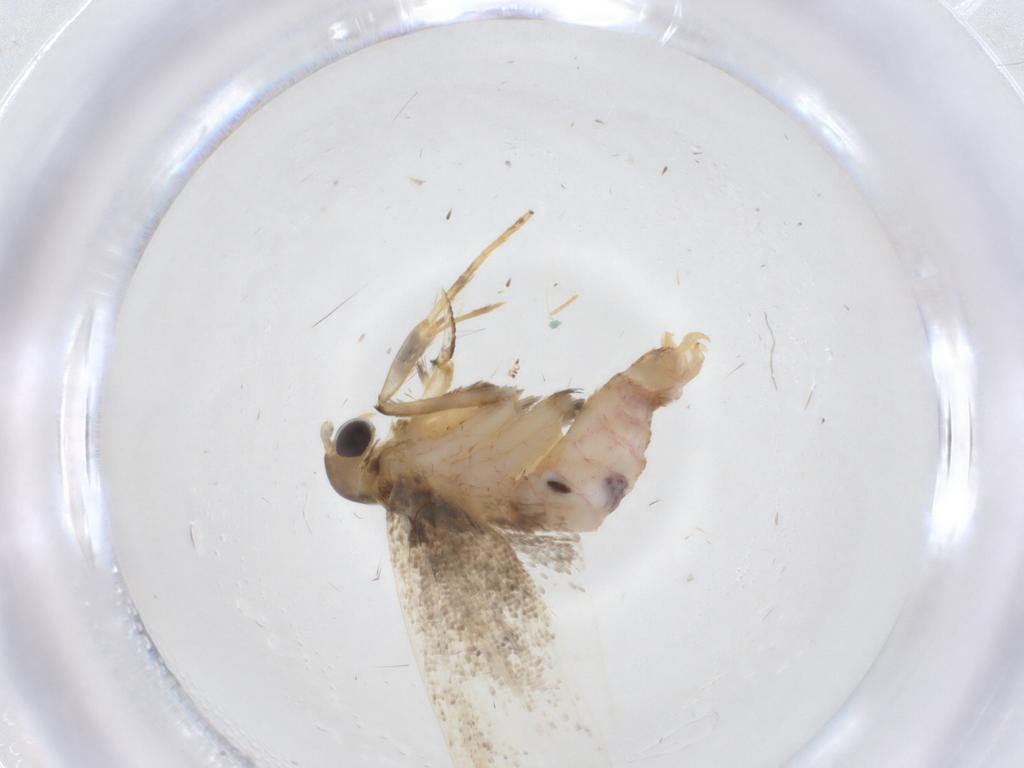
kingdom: Animalia
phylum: Arthropoda
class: Insecta
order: Lepidoptera
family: Lecithoceridae
